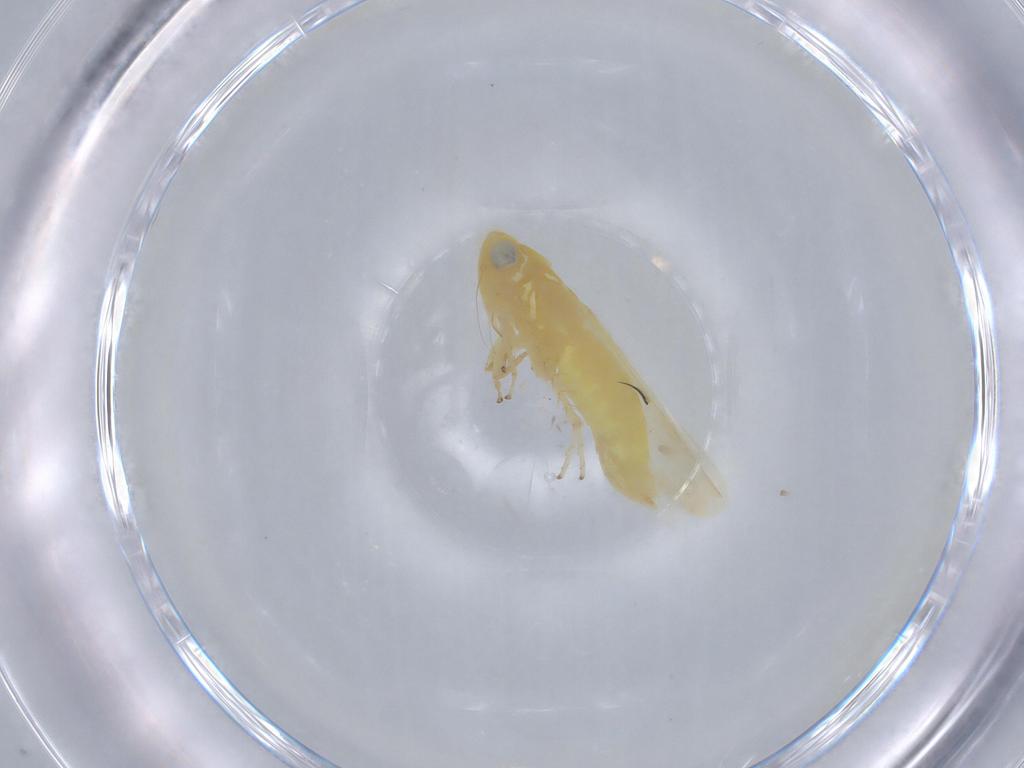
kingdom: Animalia
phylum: Arthropoda
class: Insecta
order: Hemiptera
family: Cicadellidae
